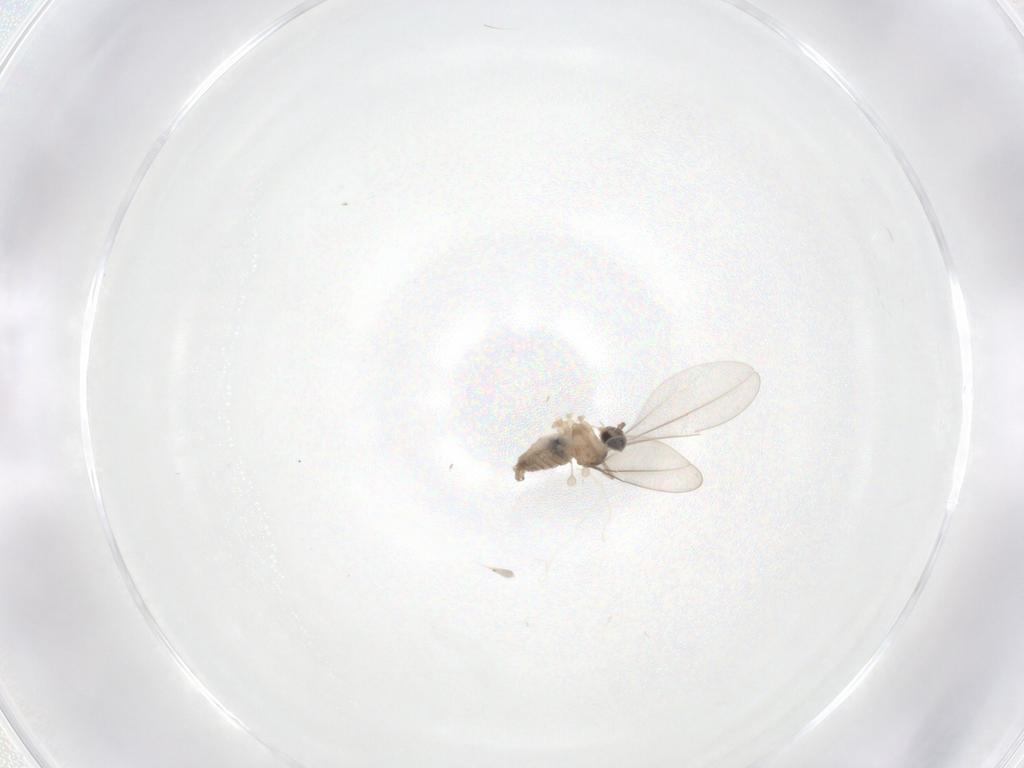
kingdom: Animalia
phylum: Arthropoda
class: Insecta
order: Diptera
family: Cecidomyiidae
